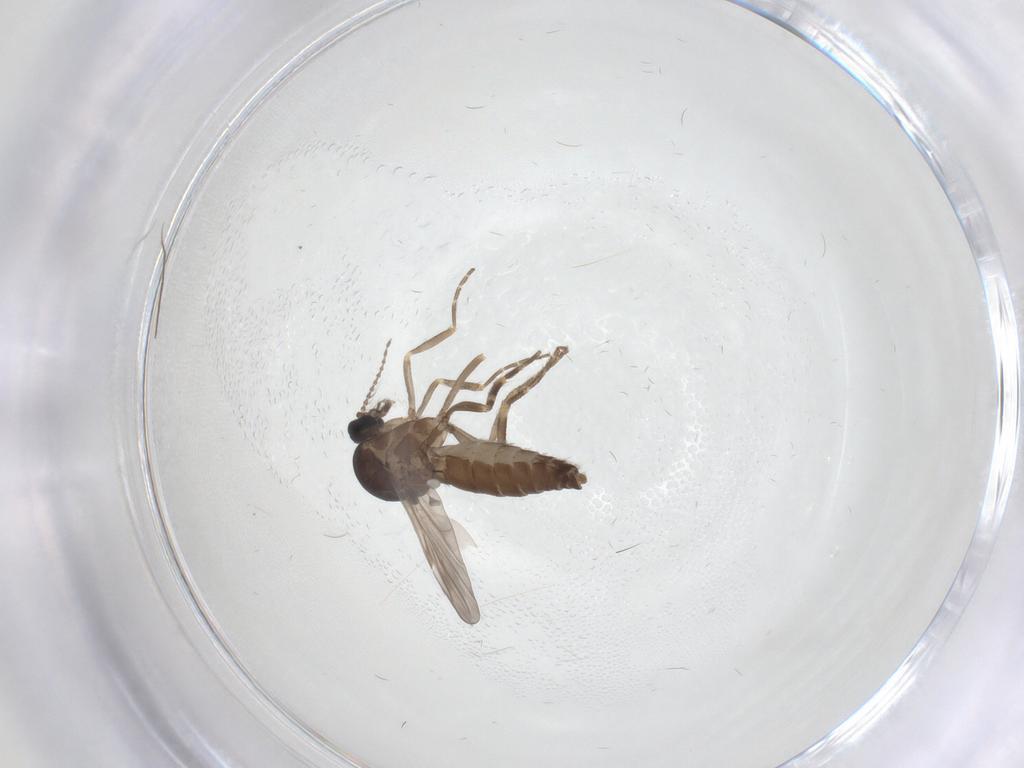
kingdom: Animalia
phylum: Arthropoda
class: Insecta
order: Diptera
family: Ceratopogonidae
